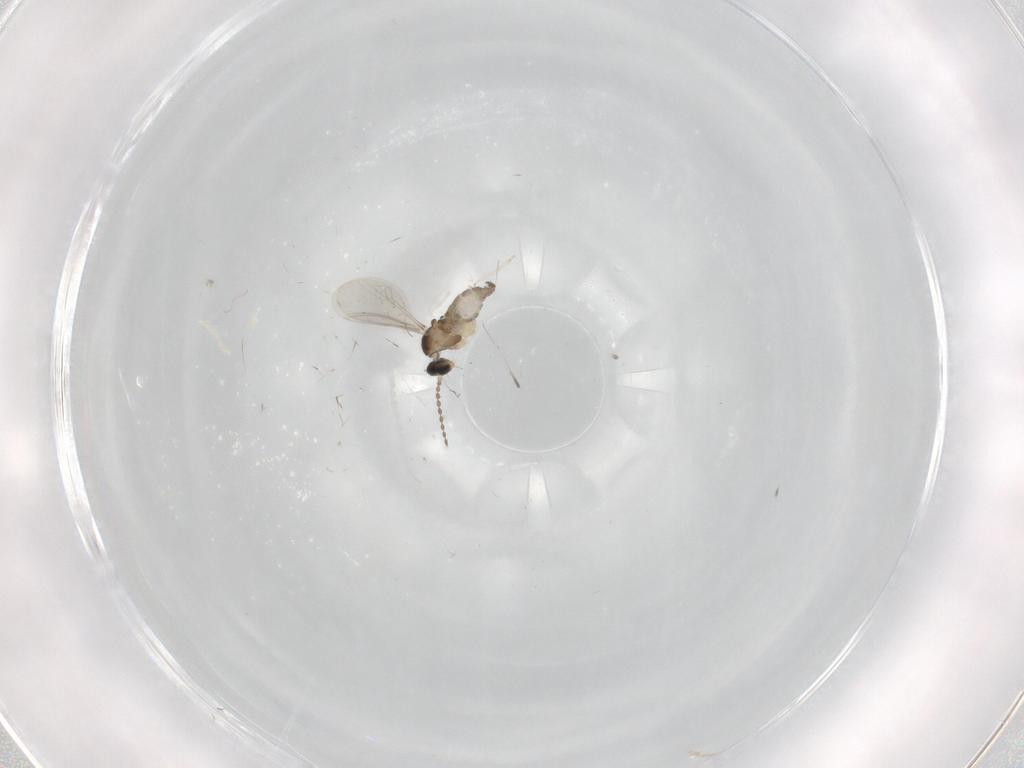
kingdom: Animalia
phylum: Arthropoda
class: Insecta
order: Diptera
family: Cecidomyiidae
